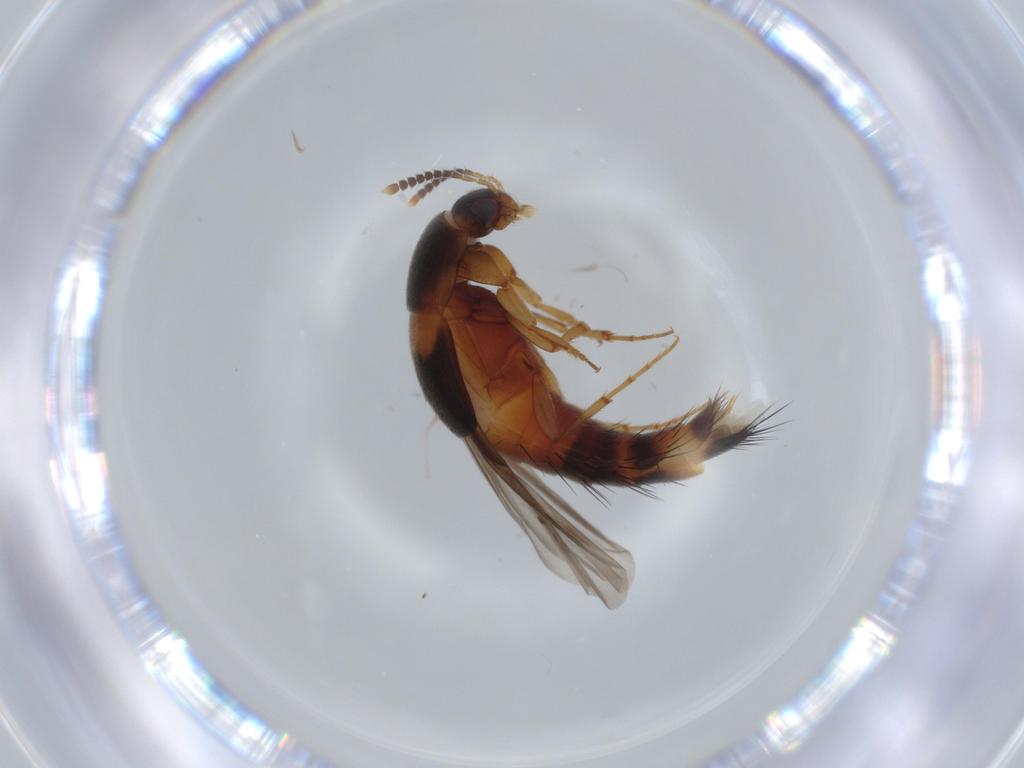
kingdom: Animalia
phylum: Arthropoda
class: Insecta
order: Coleoptera
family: Staphylinidae
